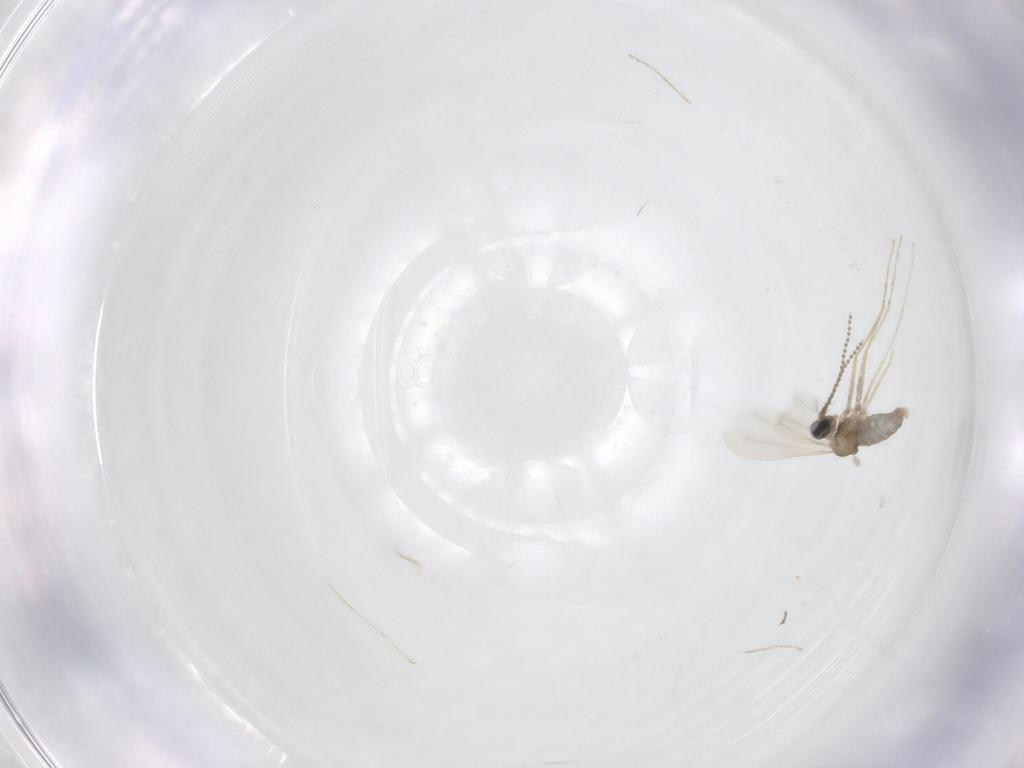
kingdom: Animalia
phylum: Arthropoda
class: Insecta
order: Diptera
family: Cecidomyiidae
